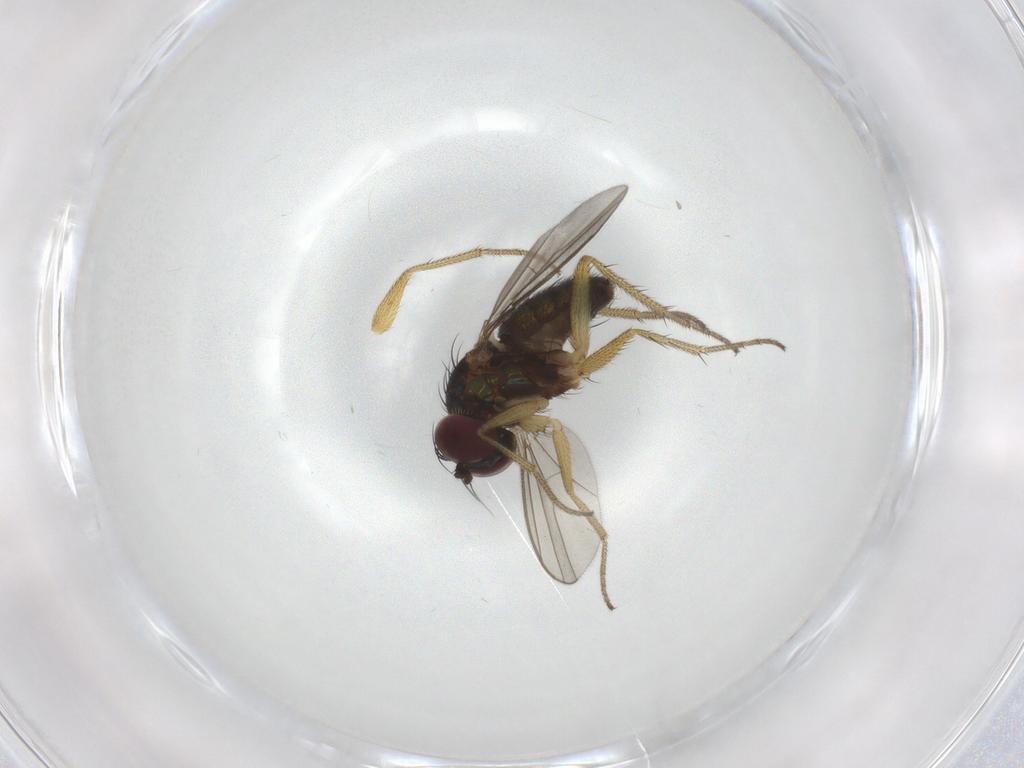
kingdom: Animalia
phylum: Arthropoda
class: Insecta
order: Diptera
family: Dolichopodidae
